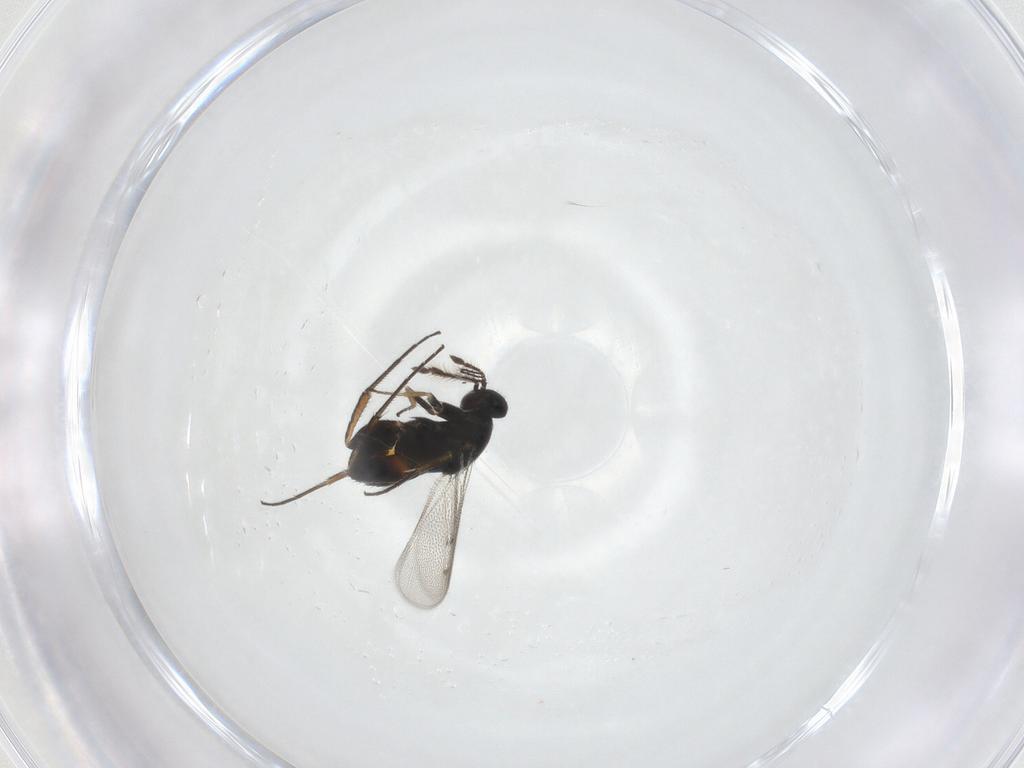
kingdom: Animalia
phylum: Arthropoda
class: Insecta
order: Hymenoptera
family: Eulophidae
